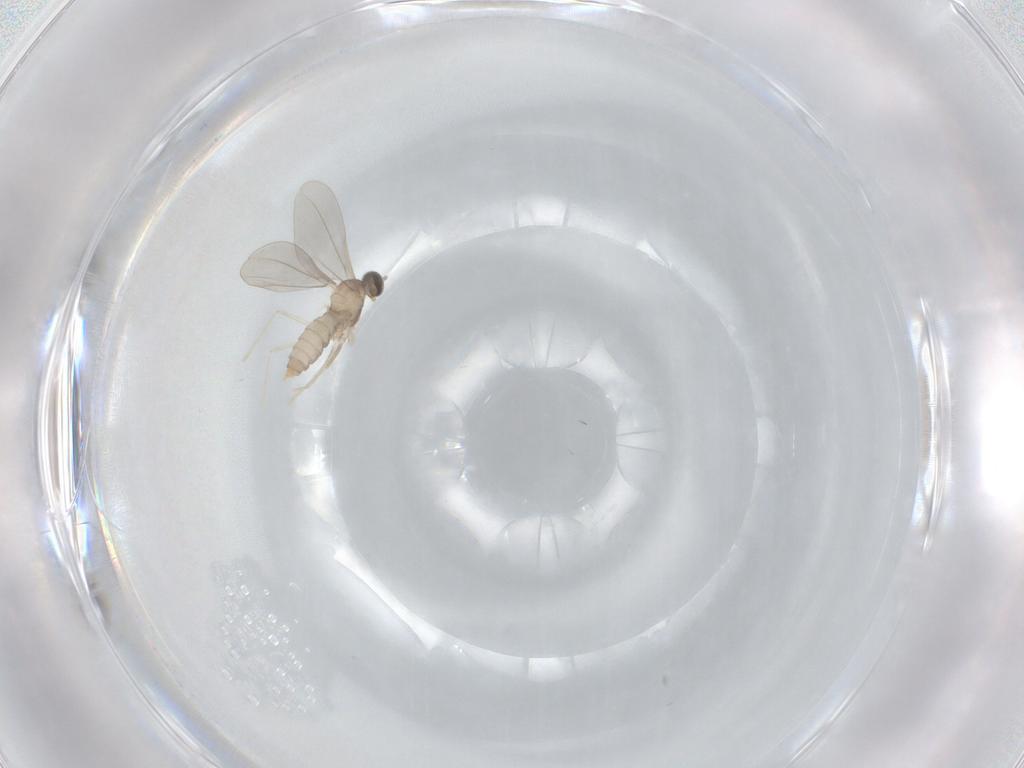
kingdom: Animalia
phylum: Arthropoda
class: Insecta
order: Diptera
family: Cecidomyiidae
